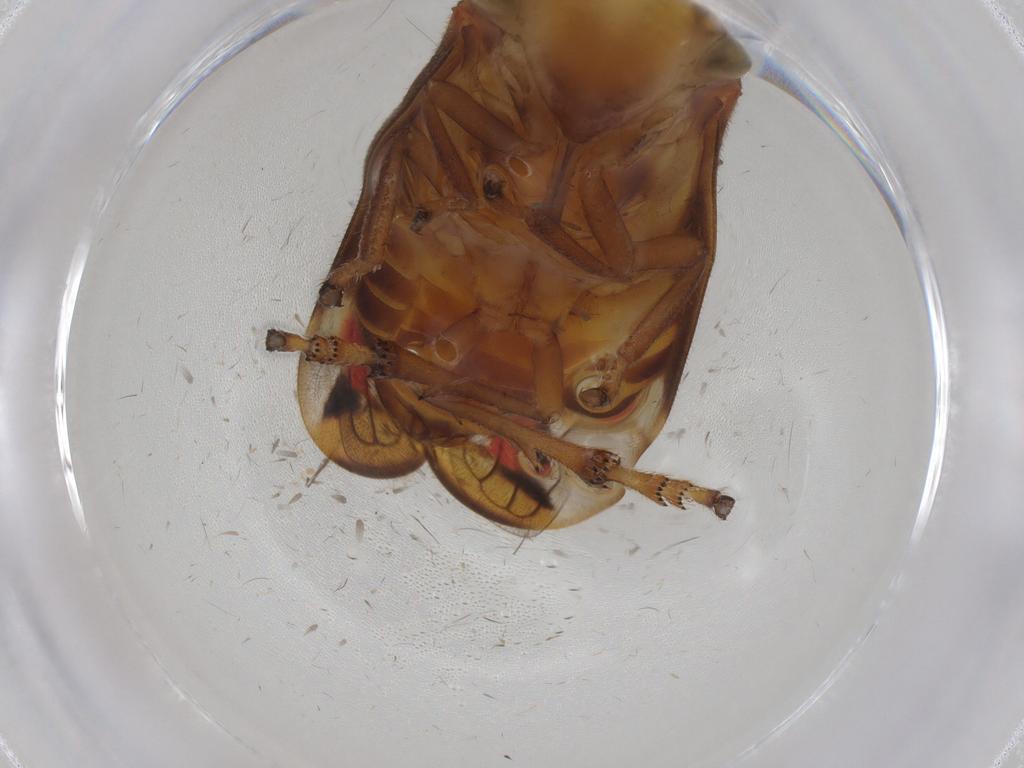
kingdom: Animalia
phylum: Arthropoda
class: Insecta
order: Hemiptera
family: Cercopidae
